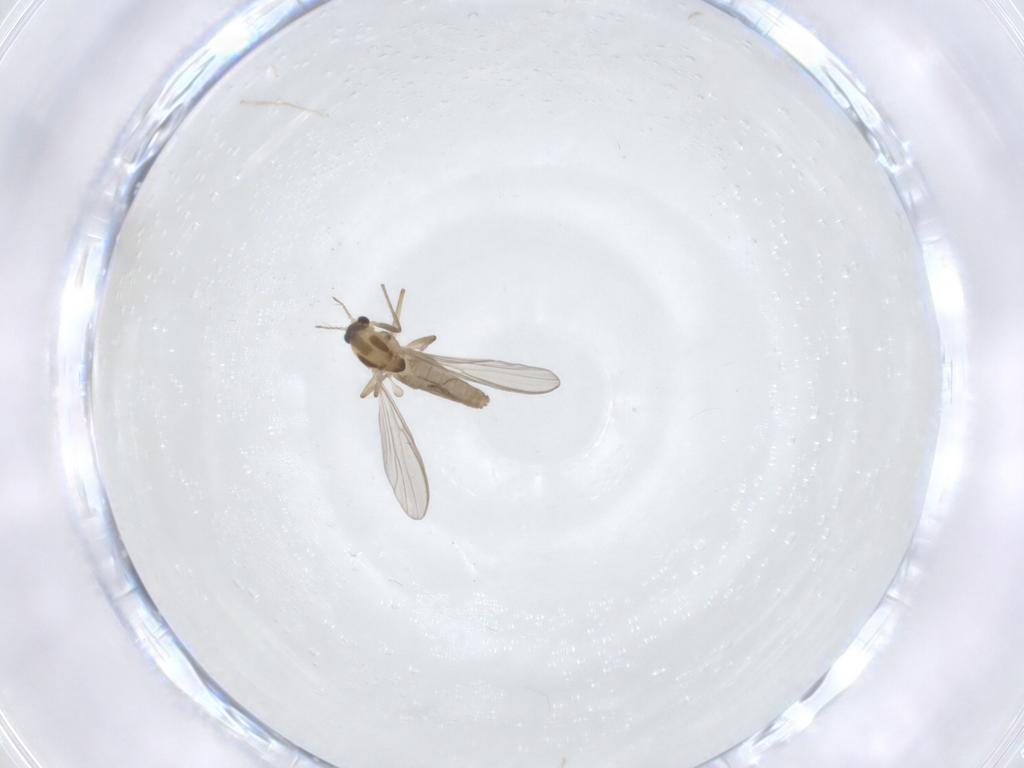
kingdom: Animalia
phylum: Arthropoda
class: Insecta
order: Diptera
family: Chironomidae
